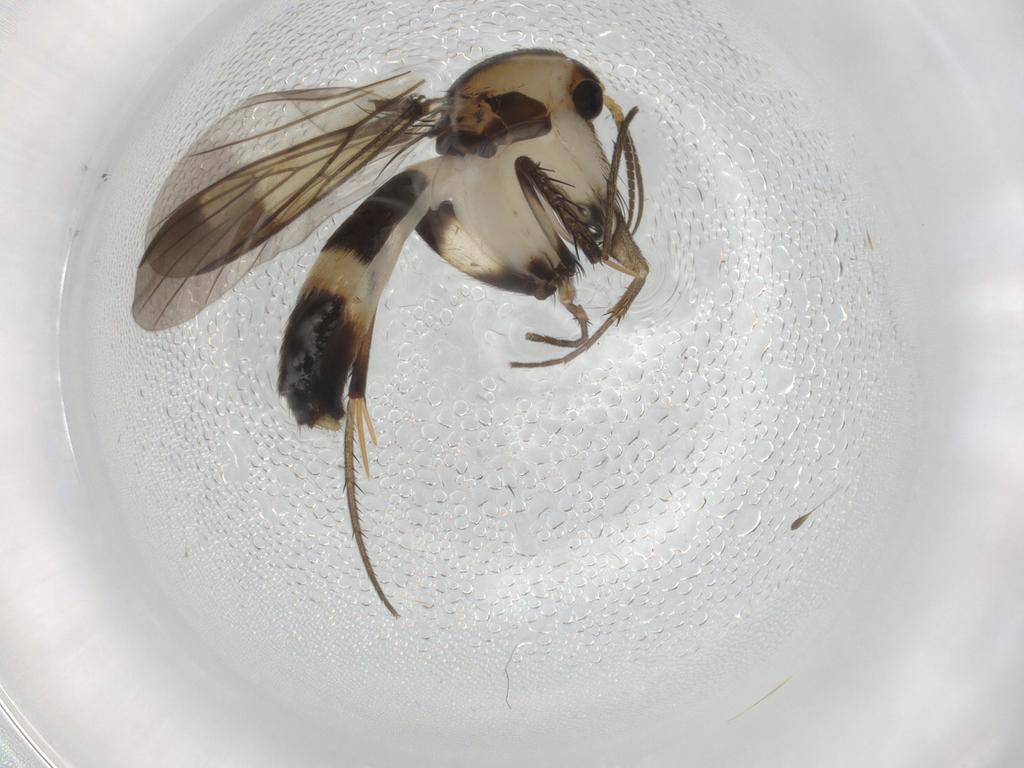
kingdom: Animalia
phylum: Arthropoda
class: Insecta
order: Diptera
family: Mycetophilidae
